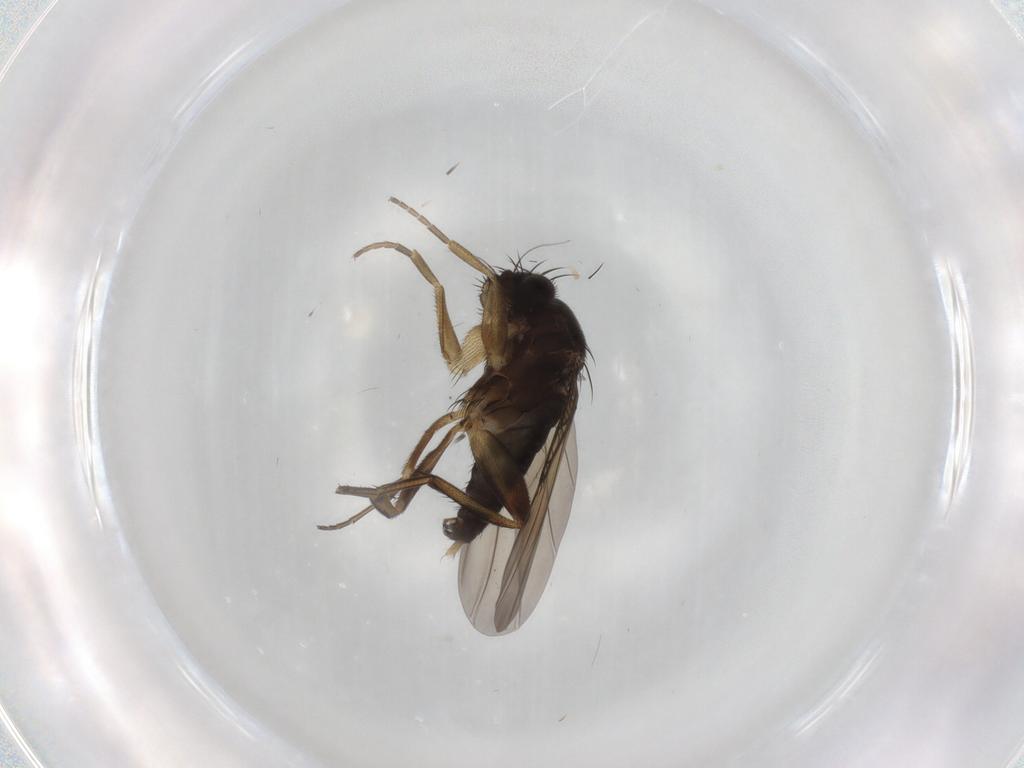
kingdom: Animalia
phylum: Arthropoda
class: Insecta
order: Diptera
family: Phoridae
